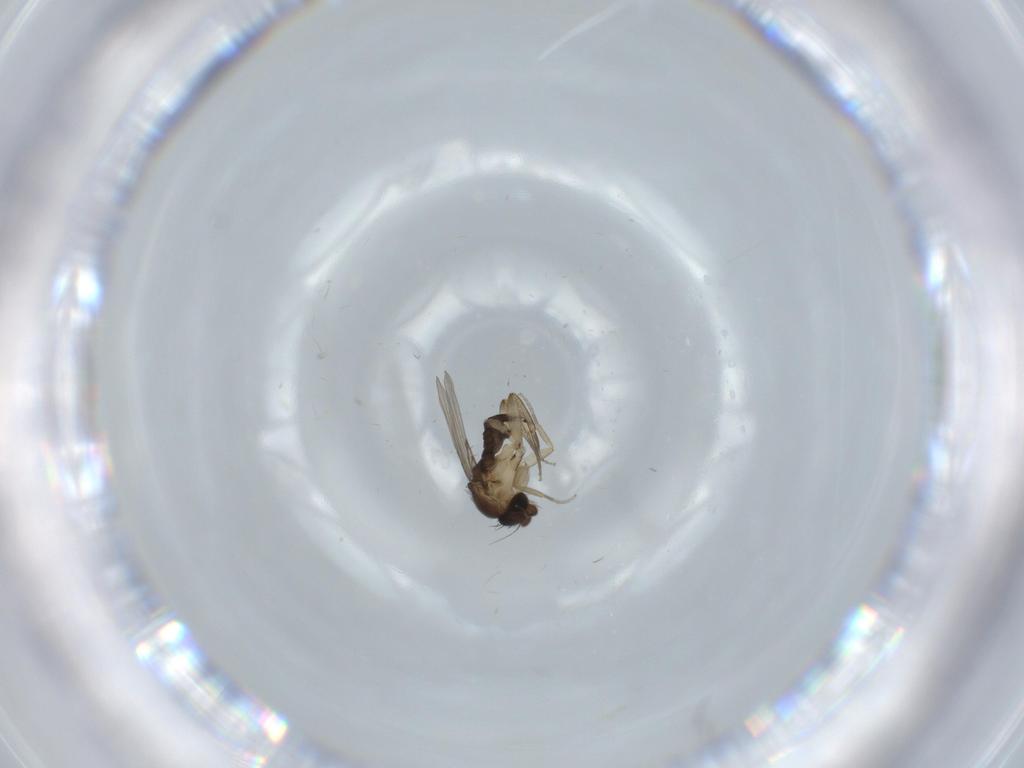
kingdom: Animalia
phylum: Arthropoda
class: Insecta
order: Diptera
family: Phoridae
